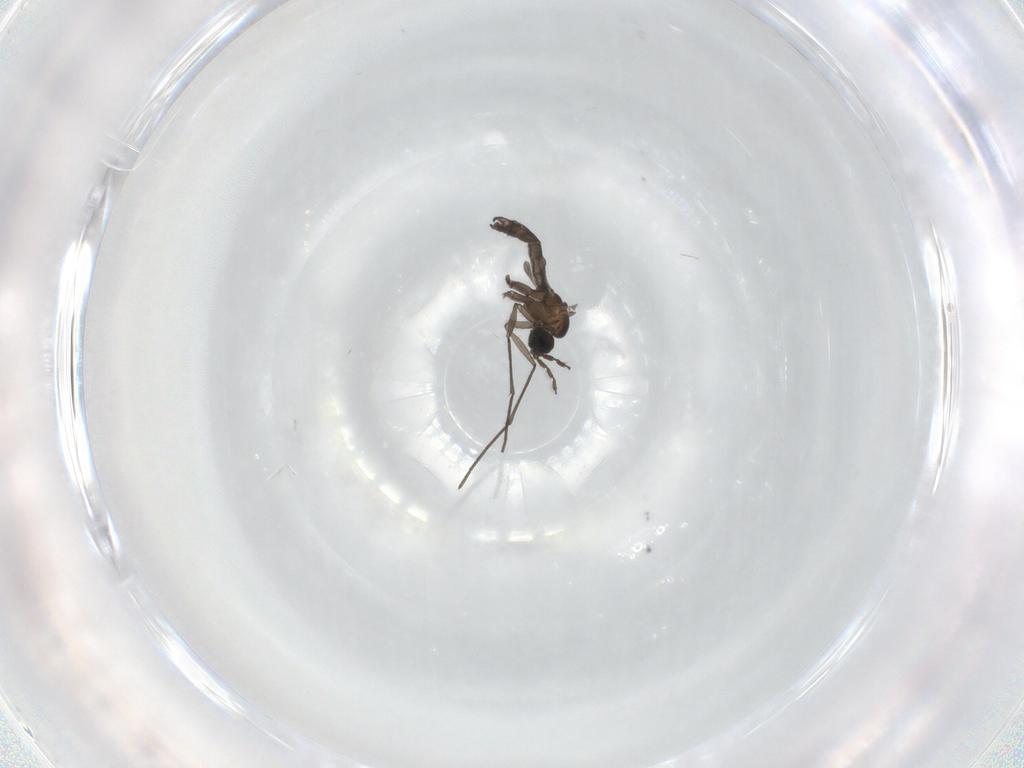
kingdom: Animalia
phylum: Arthropoda
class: Insecta
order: Diptera
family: Sciaridae
